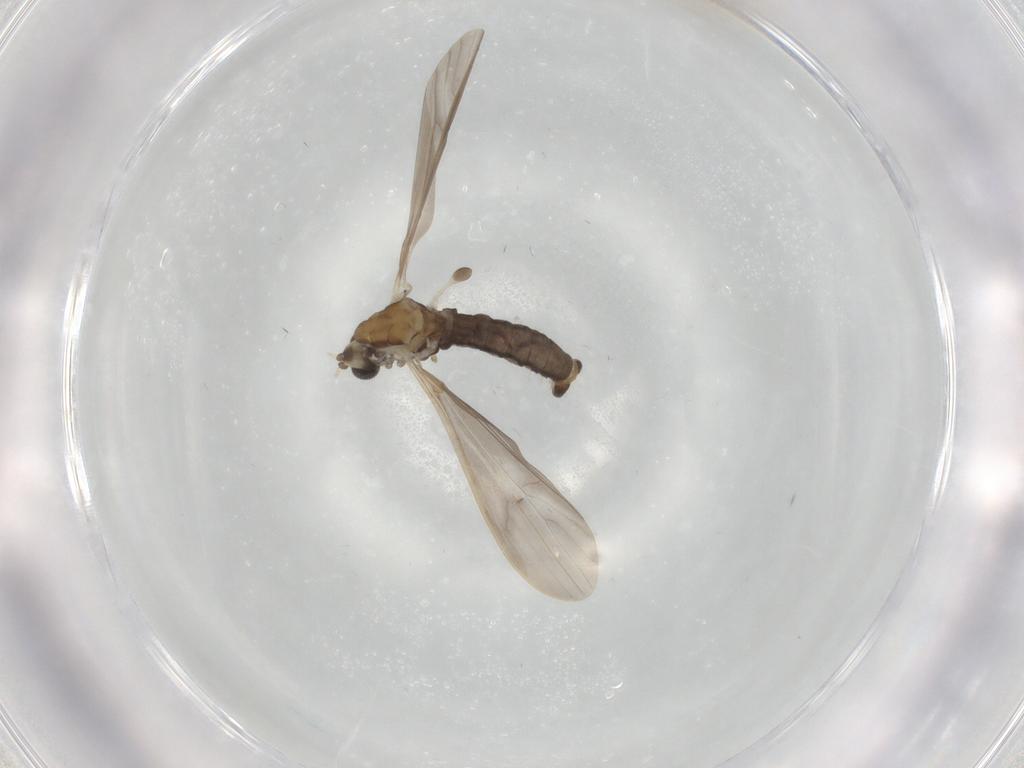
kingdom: Animalia
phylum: Arthropoda
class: Insecta
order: Diptera
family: Limoniidae
